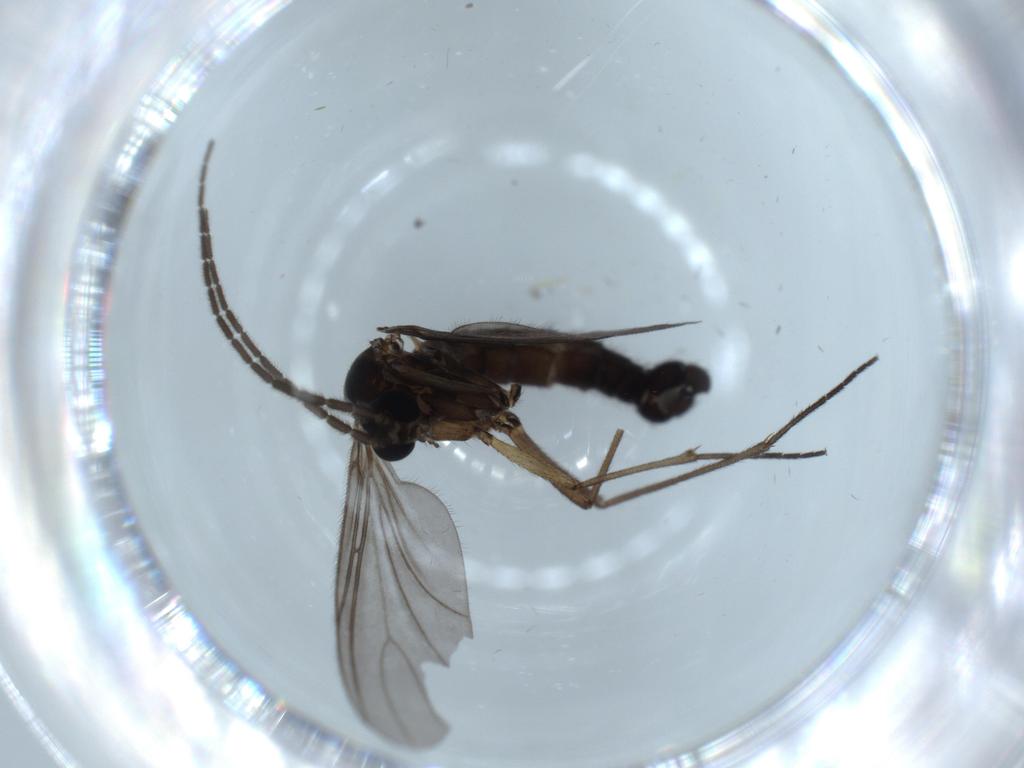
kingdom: Animalia
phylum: Arthropoda
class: Insecta
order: Diptera
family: Sciaridae
